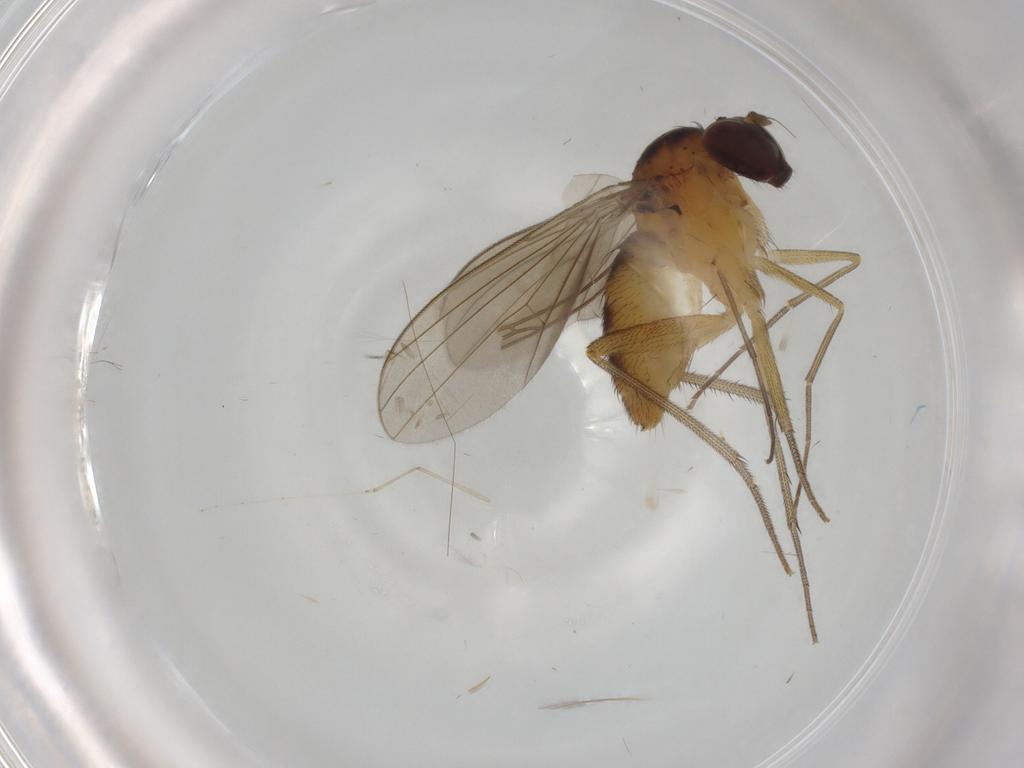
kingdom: Animalia
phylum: Arthropoda
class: Insecta
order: Diptera
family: Dolichopodidae
